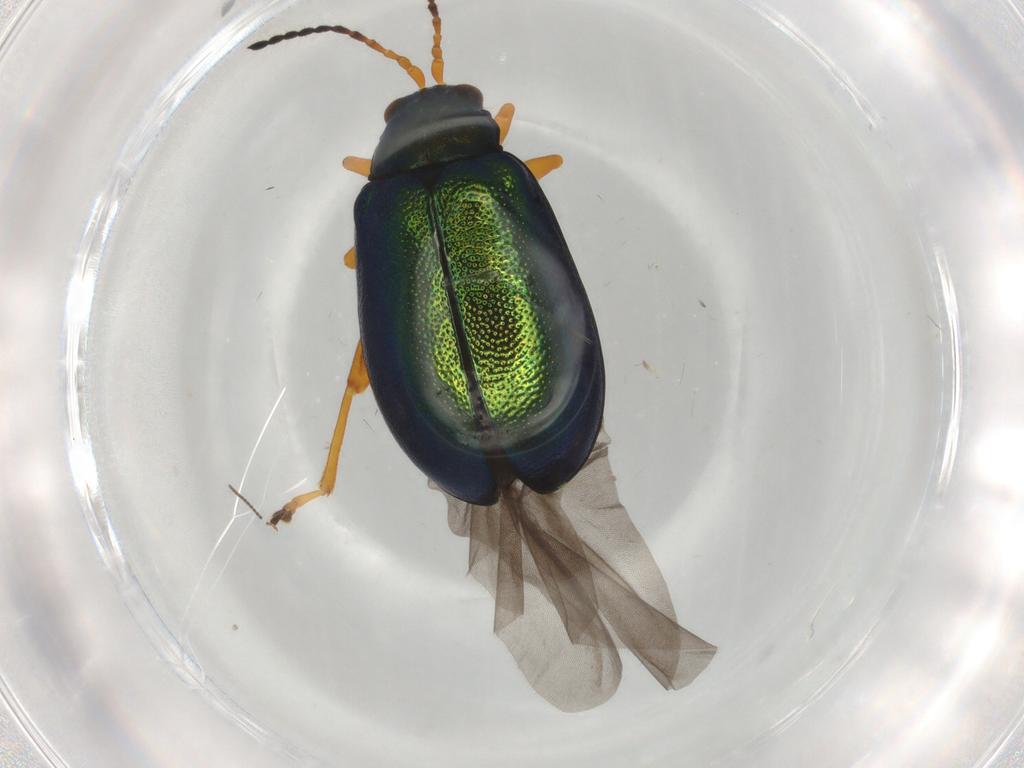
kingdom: Animalia
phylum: Arthropoda
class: Insecta
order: Coleoptera
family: Chrysomelidae
